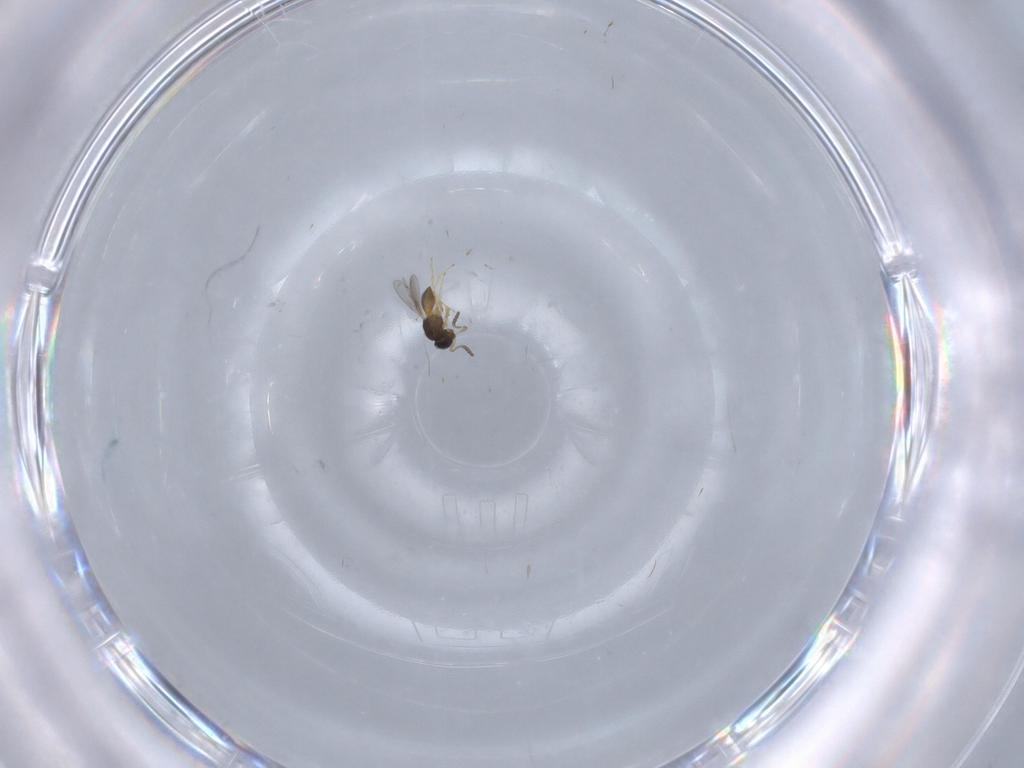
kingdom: Animalia
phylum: Arthropoda
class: Insecta
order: Hymenoptera
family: Scelionidae
